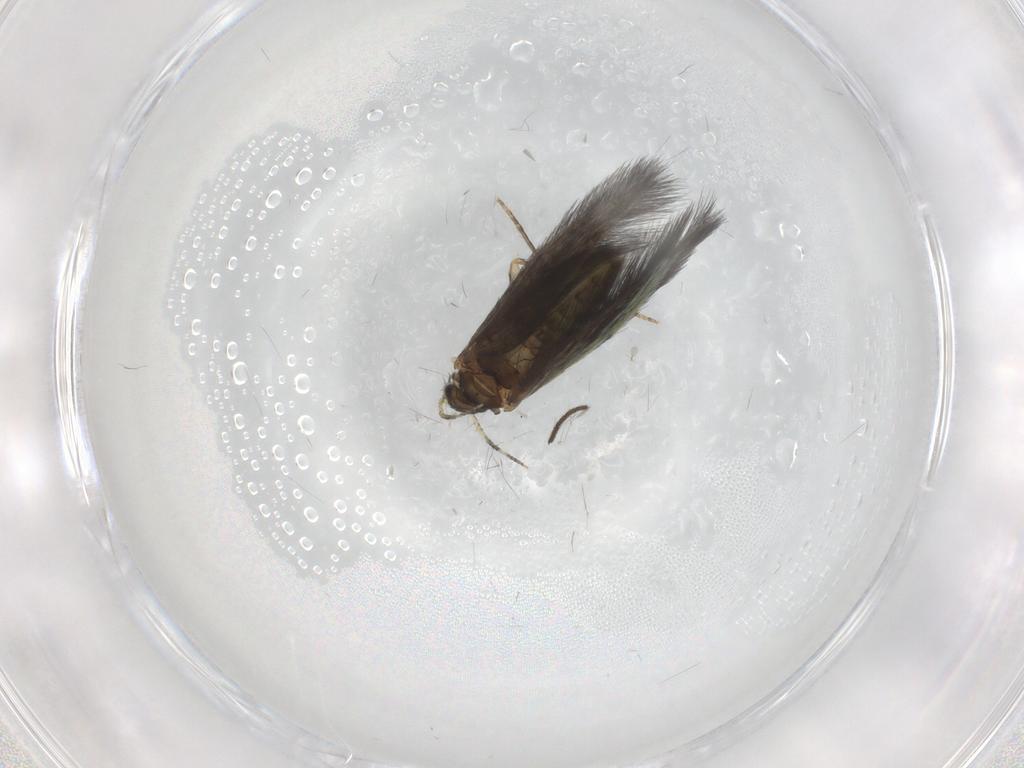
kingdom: Animalia
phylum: Arthropoda
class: Insecta
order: Trichoptera
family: Hydroptilidae
